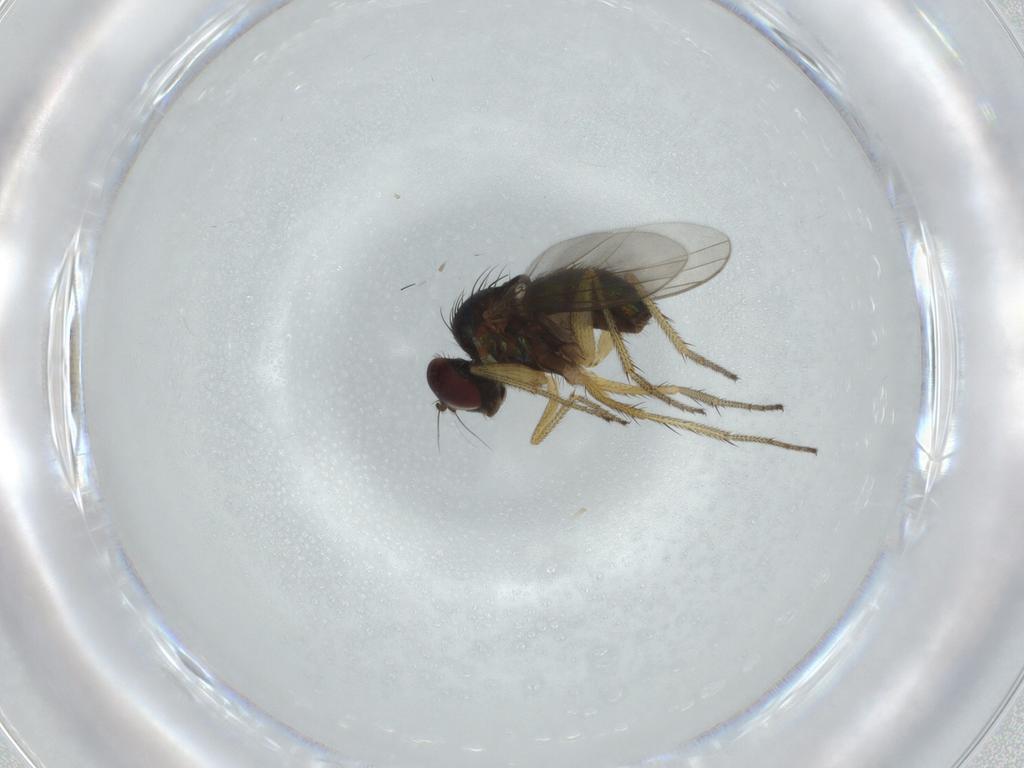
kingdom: Animalia
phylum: Arthropoda
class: Insecta
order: Diptera
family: Dolichopodidae
